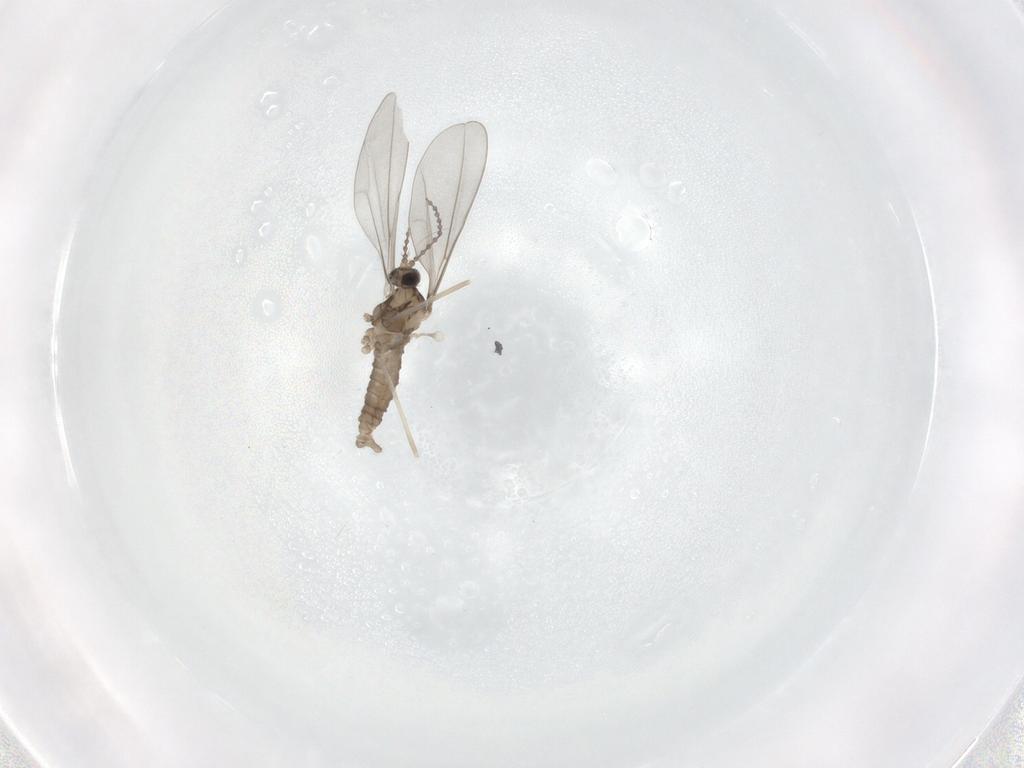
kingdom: Animalia
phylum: Arthropoda
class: Insecta
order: Diptera
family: Cecidomyiidae
